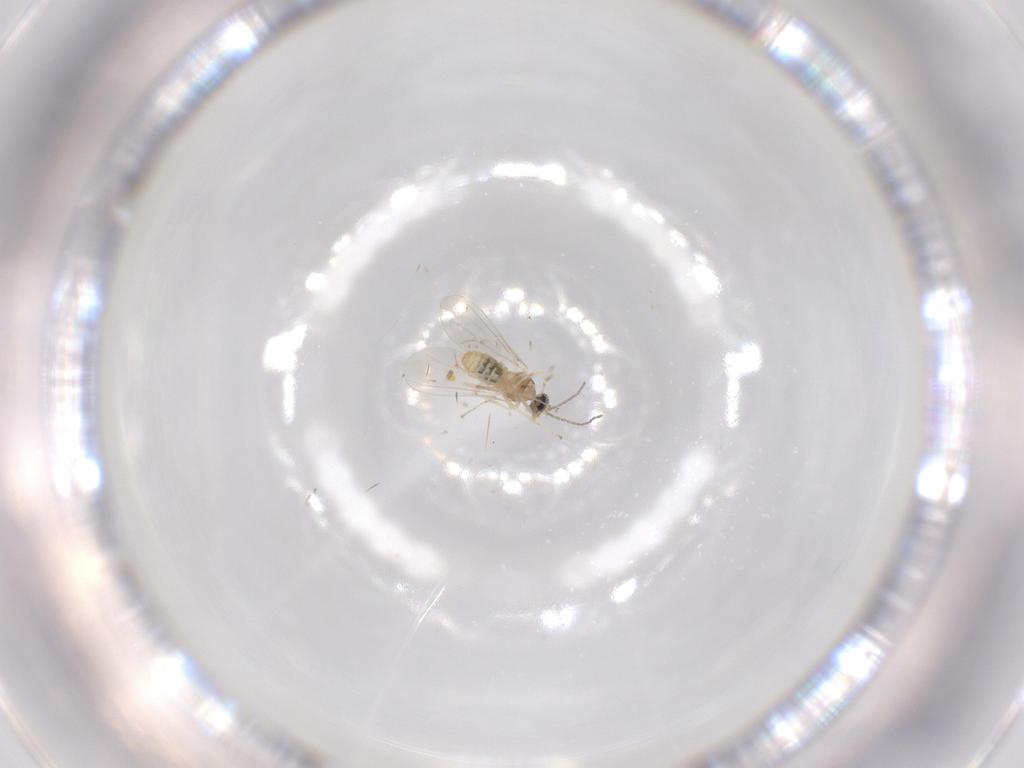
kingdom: Animalia
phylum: Arthropoda
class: Insecta
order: Diptera
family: Cecidomyiidae
